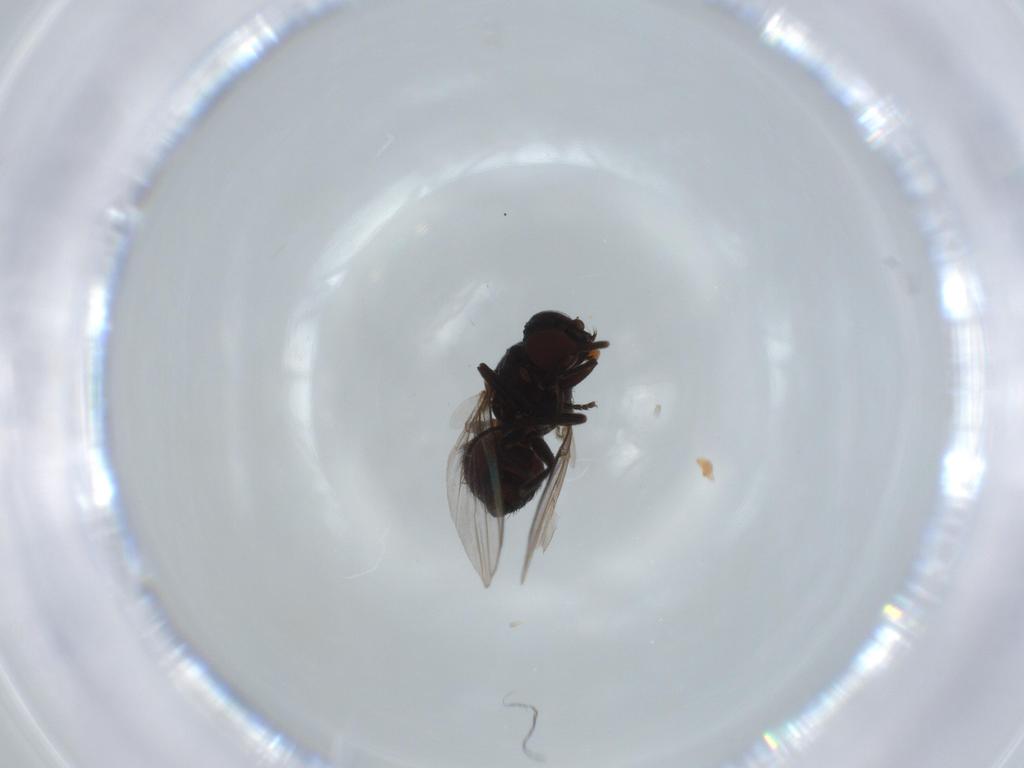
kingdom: Animalia
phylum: Arthropoda
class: Insecta
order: Diptera
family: Agromyzidae
